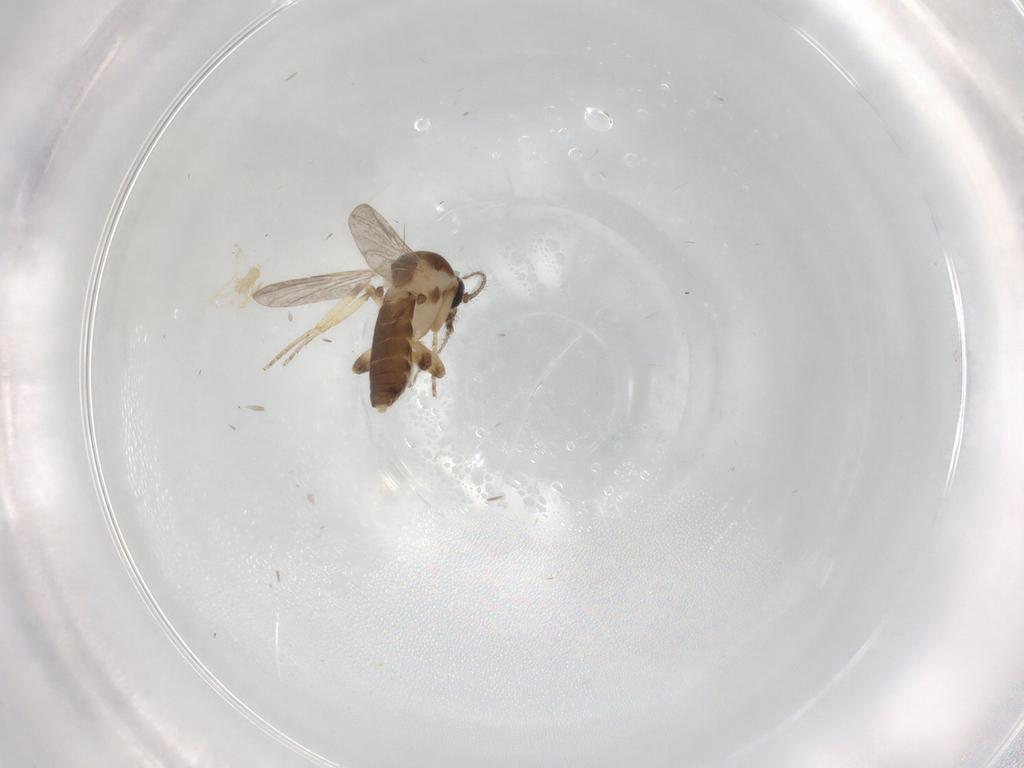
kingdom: Animalia
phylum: Arthropoda
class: Insecta
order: Diptera
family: Ceratopogonidae
